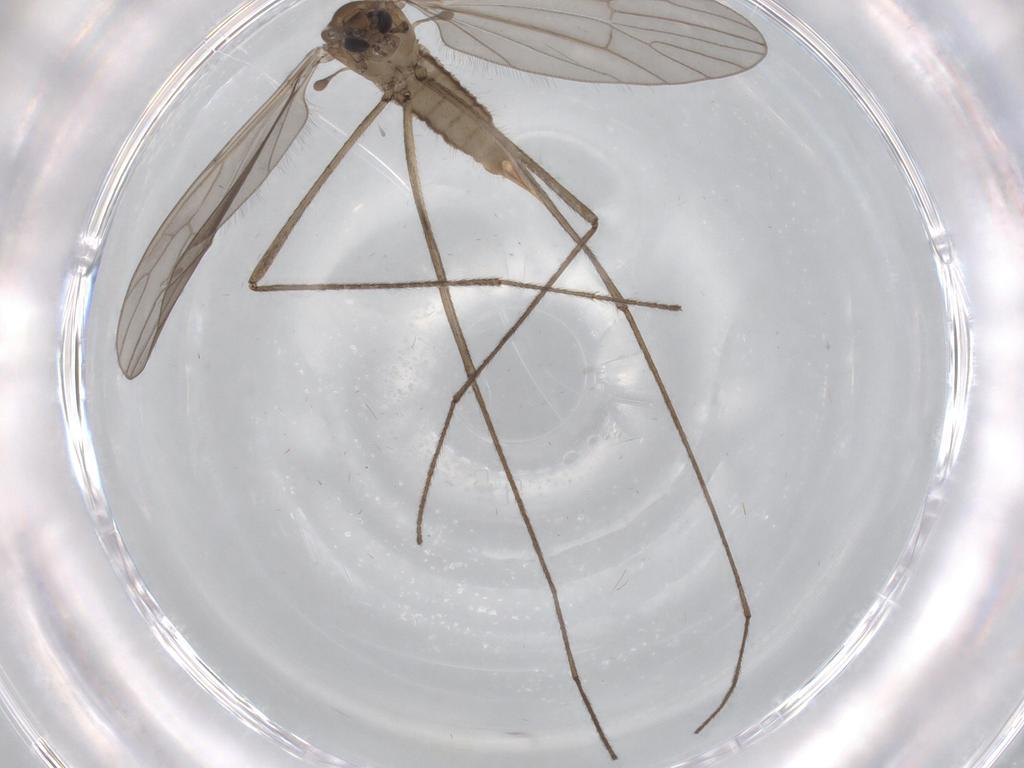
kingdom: Animalia
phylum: Arthropoda
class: Insecta
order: Diptera
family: Limoniidae
